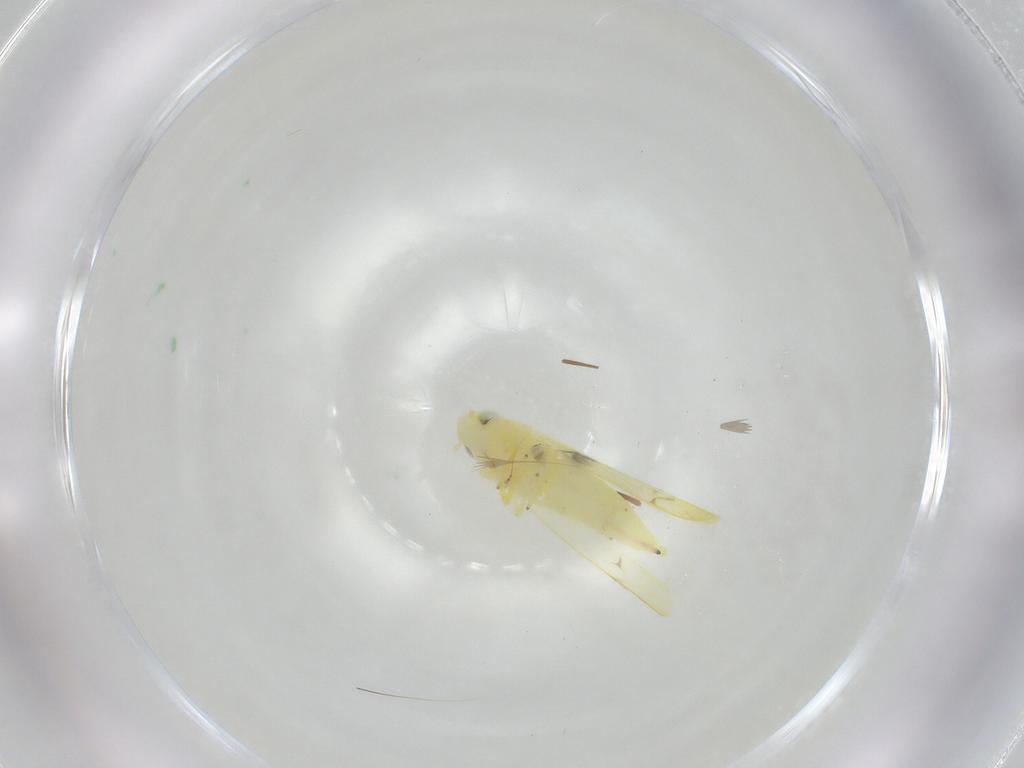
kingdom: Animalia
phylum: Arthropoda
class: Insecta
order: Hemiptera
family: Cicadellidae
